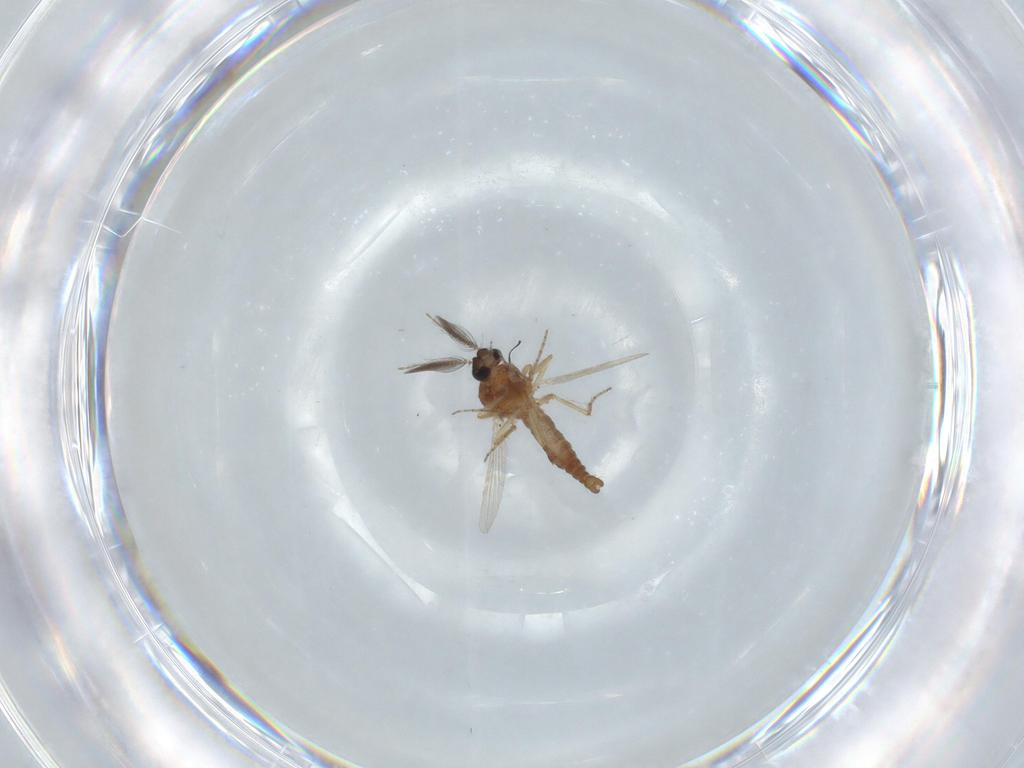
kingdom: Animalia
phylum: Arthropoda
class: Insecta
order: Diptera
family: Ceratopogonidae
